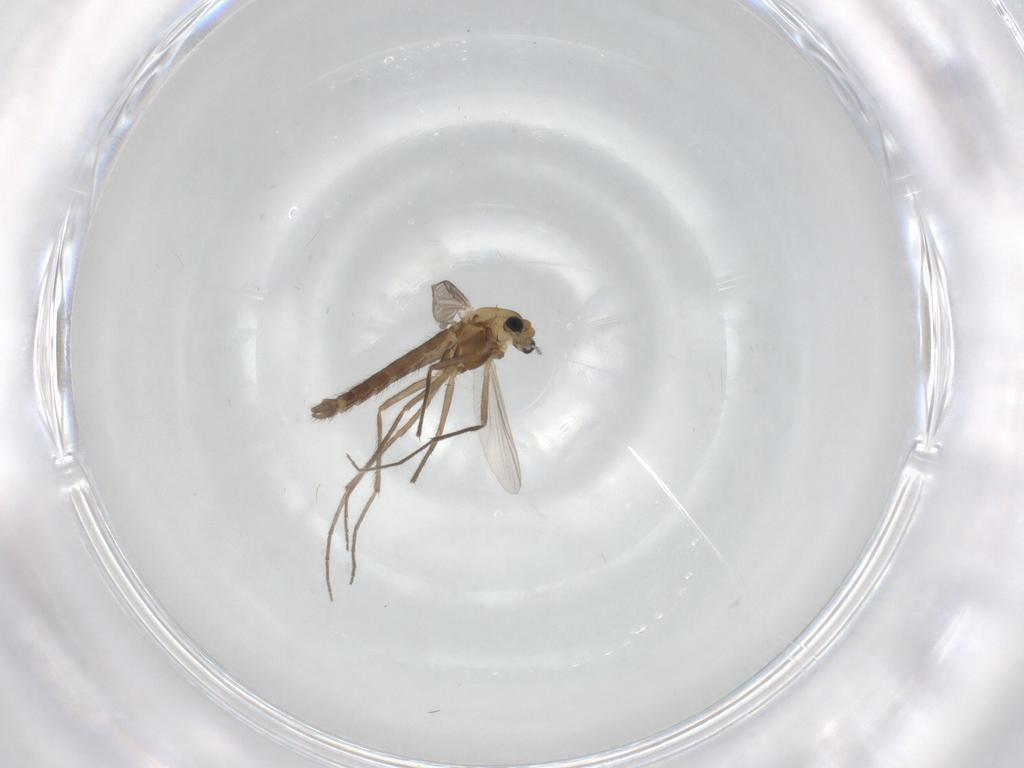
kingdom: Animalia
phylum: Arthropoda
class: Insecta
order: Diptera
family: Chironomidae
